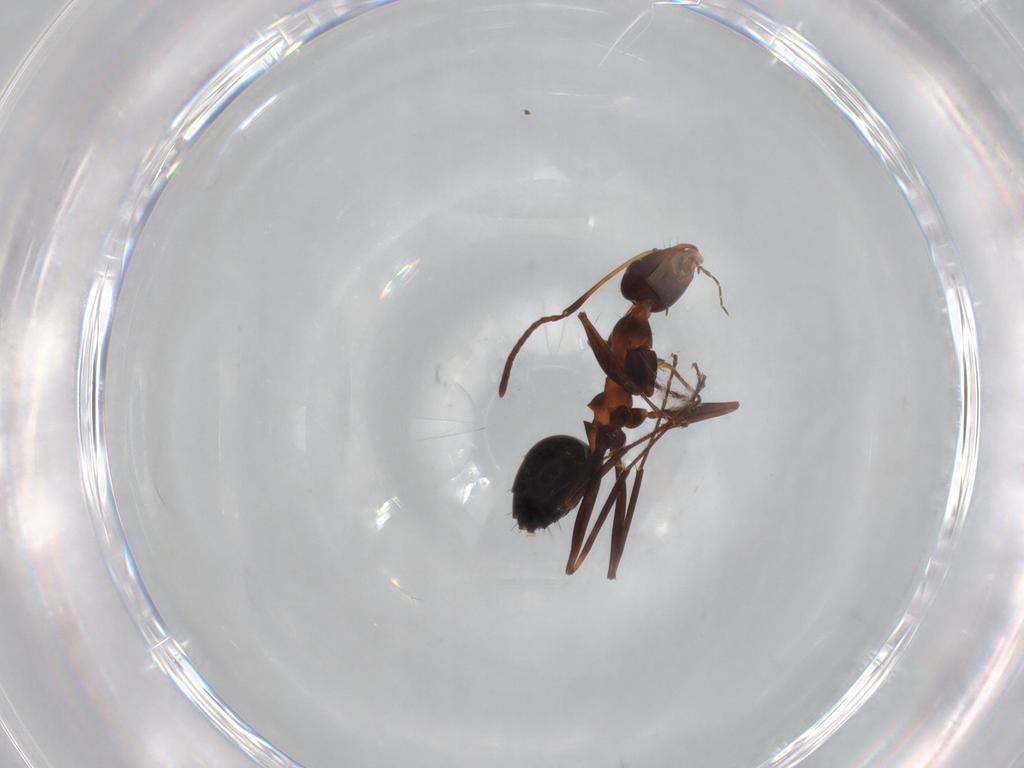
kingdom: Animalia
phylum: Arthropoda
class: Insecta
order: Hymenoptera
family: Formicidae
